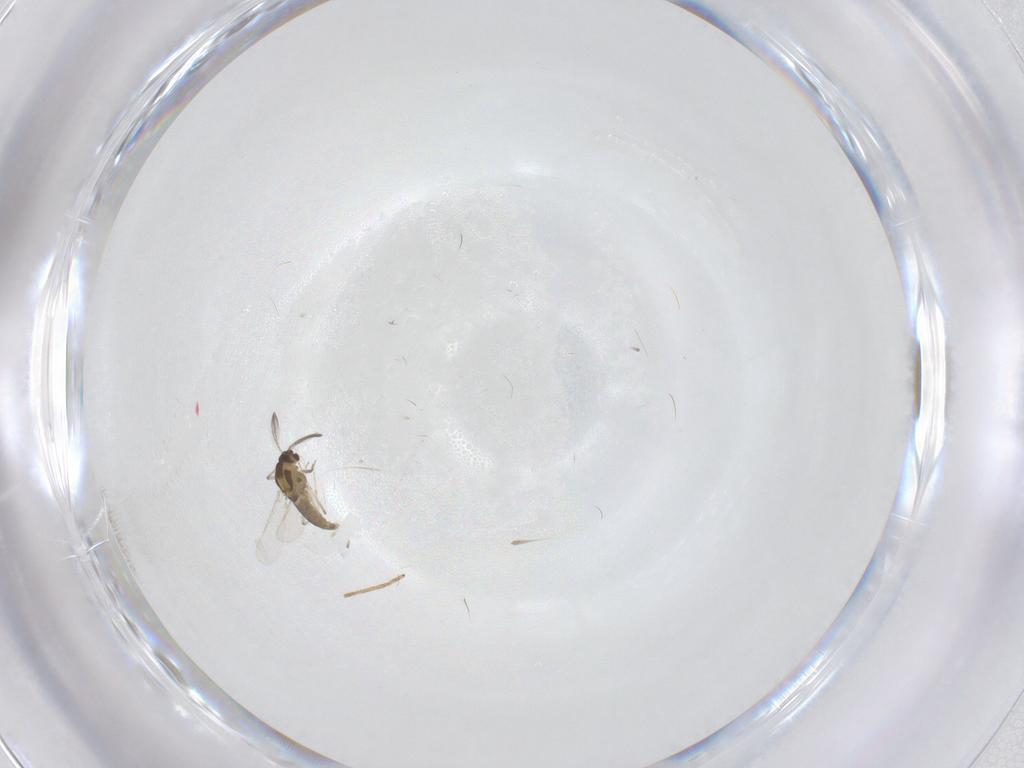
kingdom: Animalia
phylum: Arthropoda
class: Insecta
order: Diptera
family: Chironomidae
